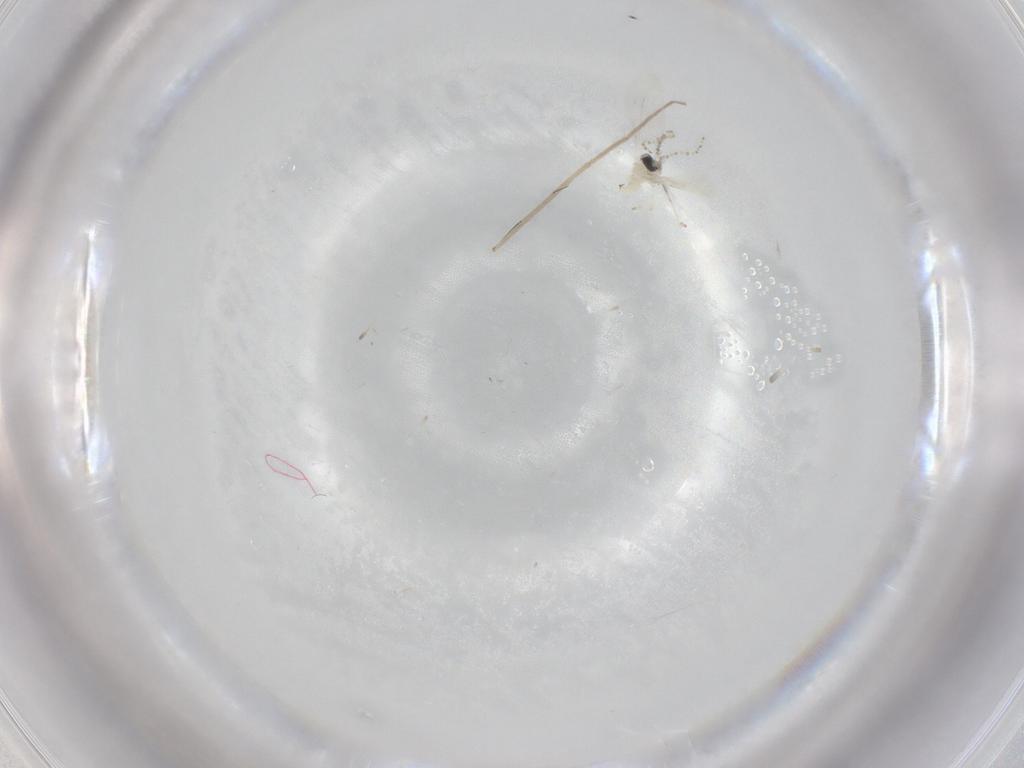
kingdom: Animalia
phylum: Arthropoda
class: Insecta
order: Diptera
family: Cecidomyiidae
